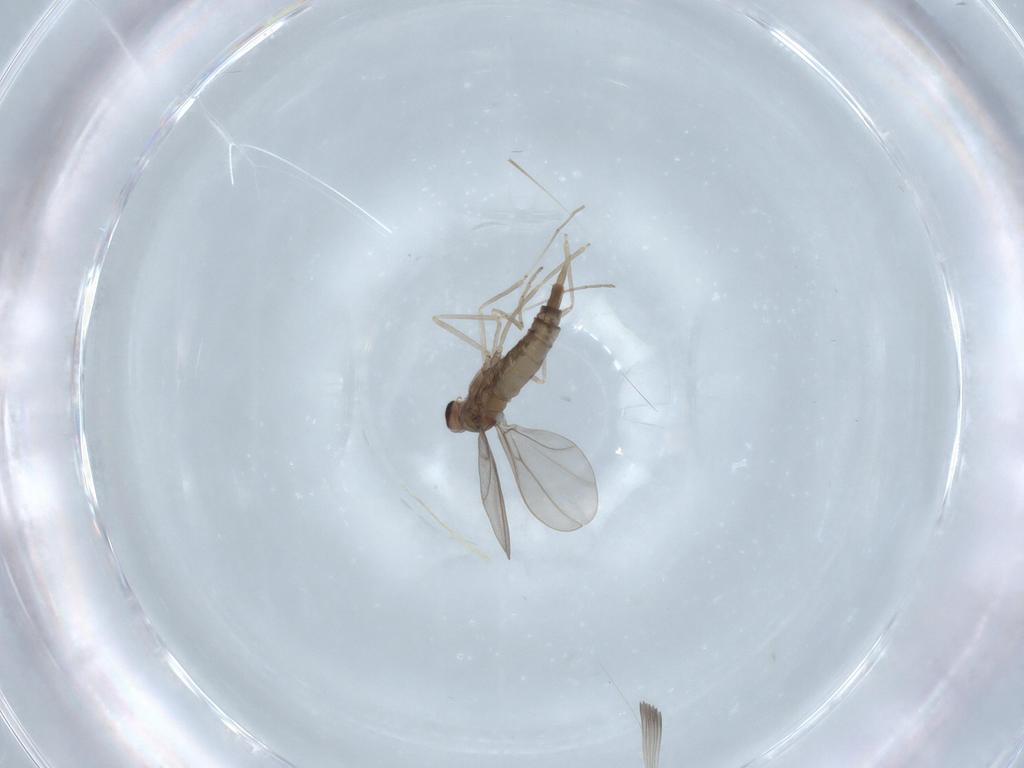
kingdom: Animalia
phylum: Arthropoda
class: Insecta
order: Diptera
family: Cecidomyiidae
